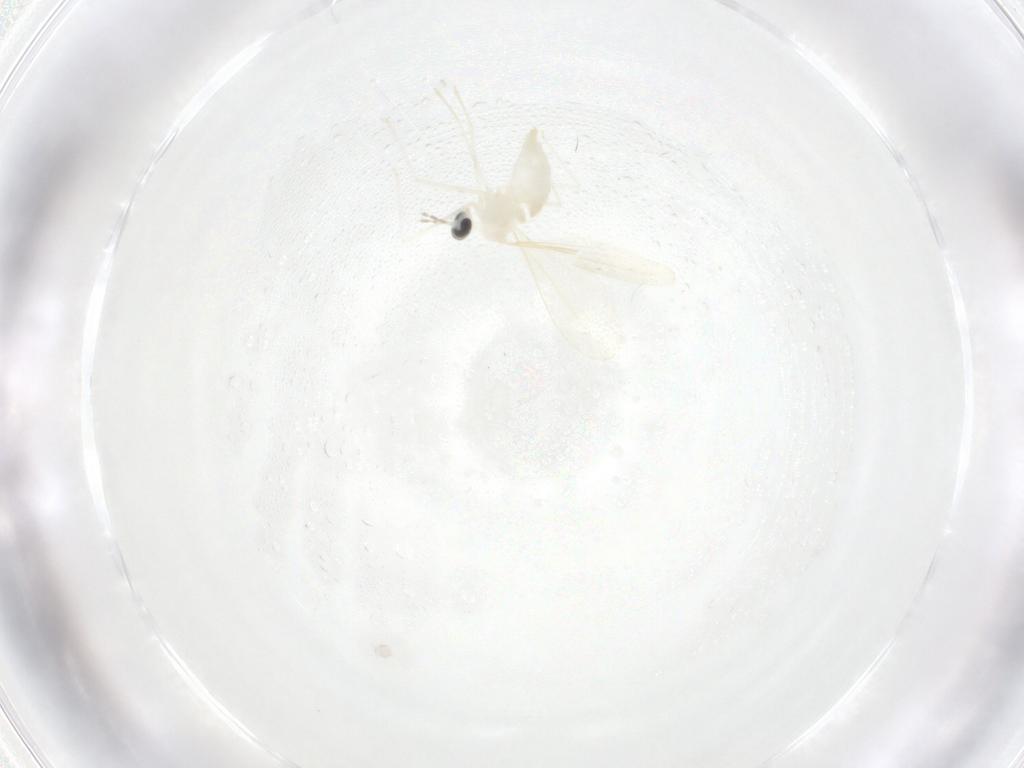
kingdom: Animalia
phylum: Arthropoda
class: Insecta
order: Diptera
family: Cecidomyiidae
